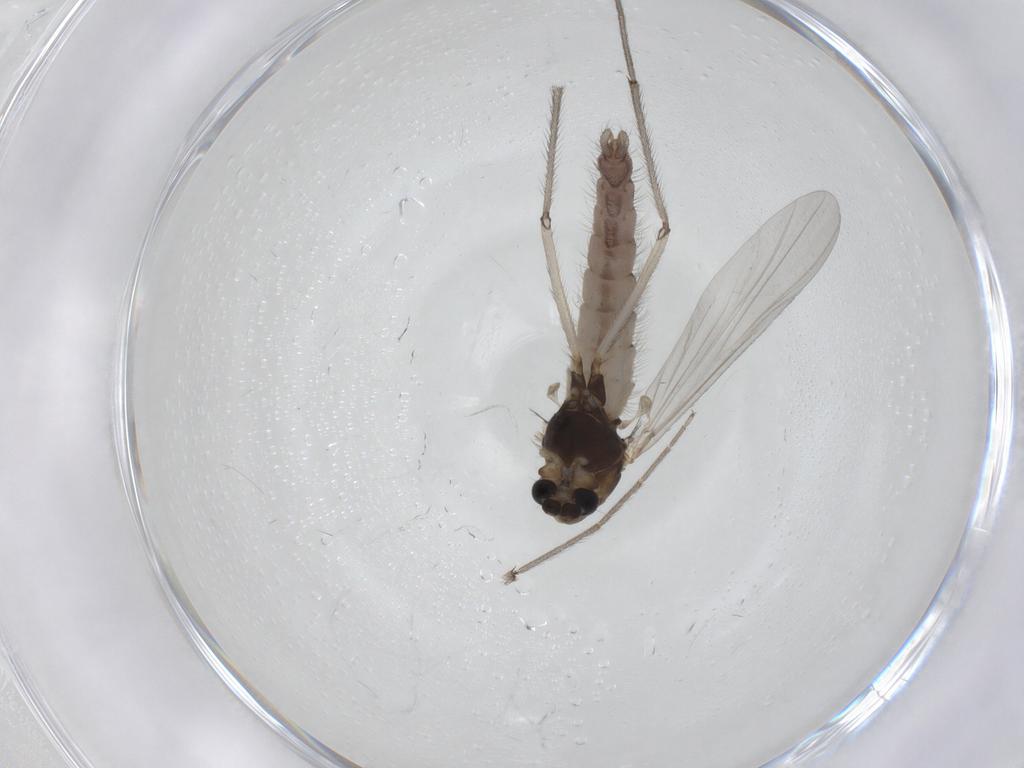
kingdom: Animalia
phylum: Arthropoda
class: Insecta
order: Diptera
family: Chironomidae
